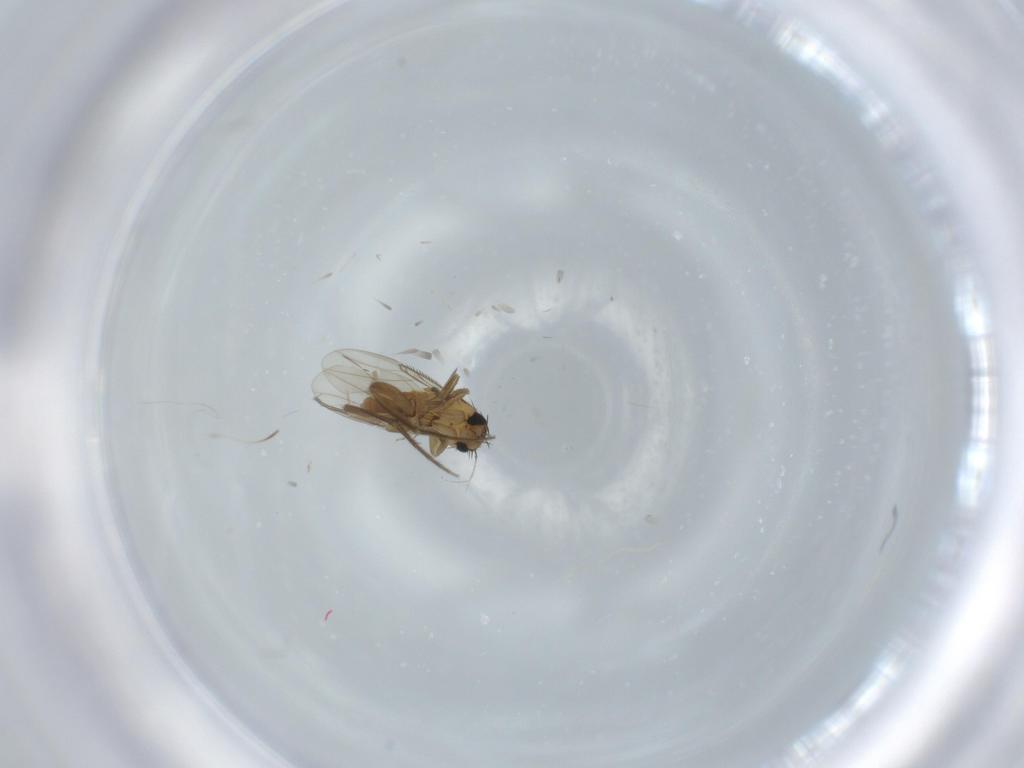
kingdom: Animalia
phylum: Arthropoda
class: Insecta
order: Diptera
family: Phoridae
